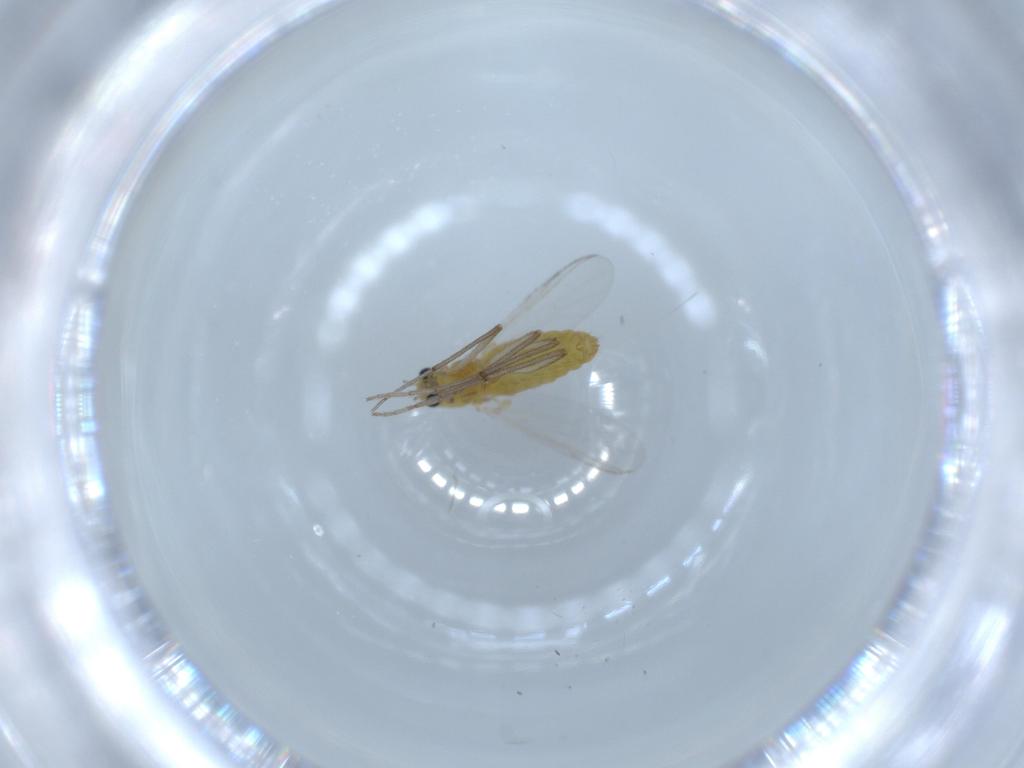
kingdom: Animalia
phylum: Arthropoda
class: Insecta
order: Diptera
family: Chironomidae
